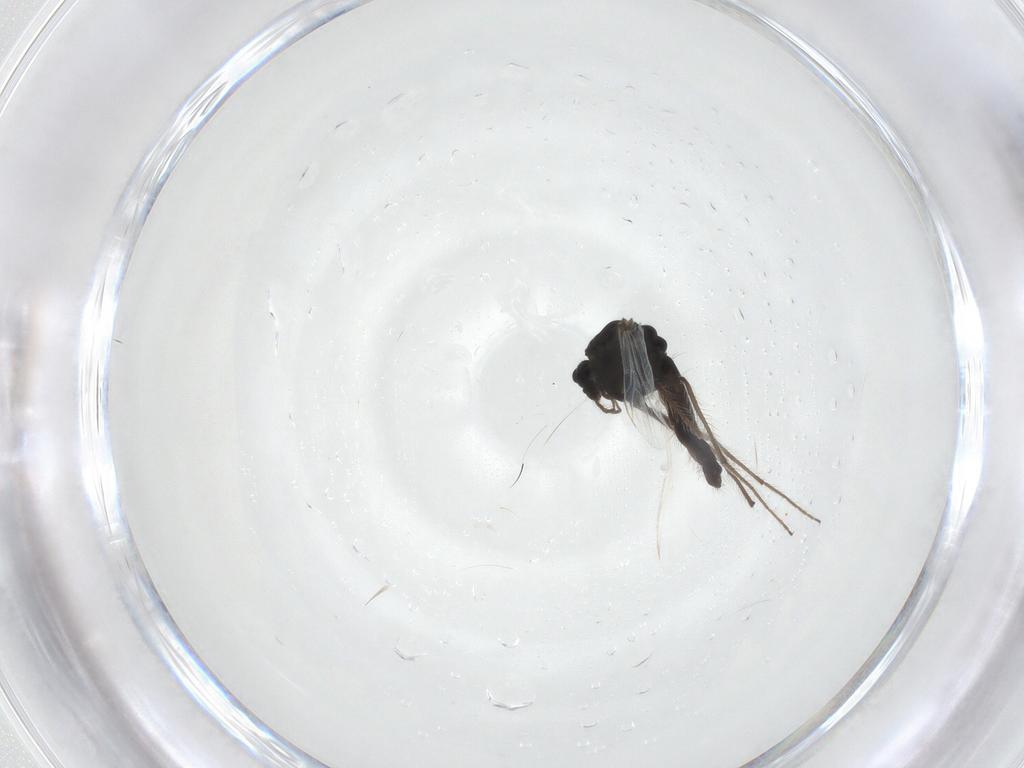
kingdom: Animalia
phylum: Arthropoda
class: Insecta
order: Diptera
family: Chironomidae
